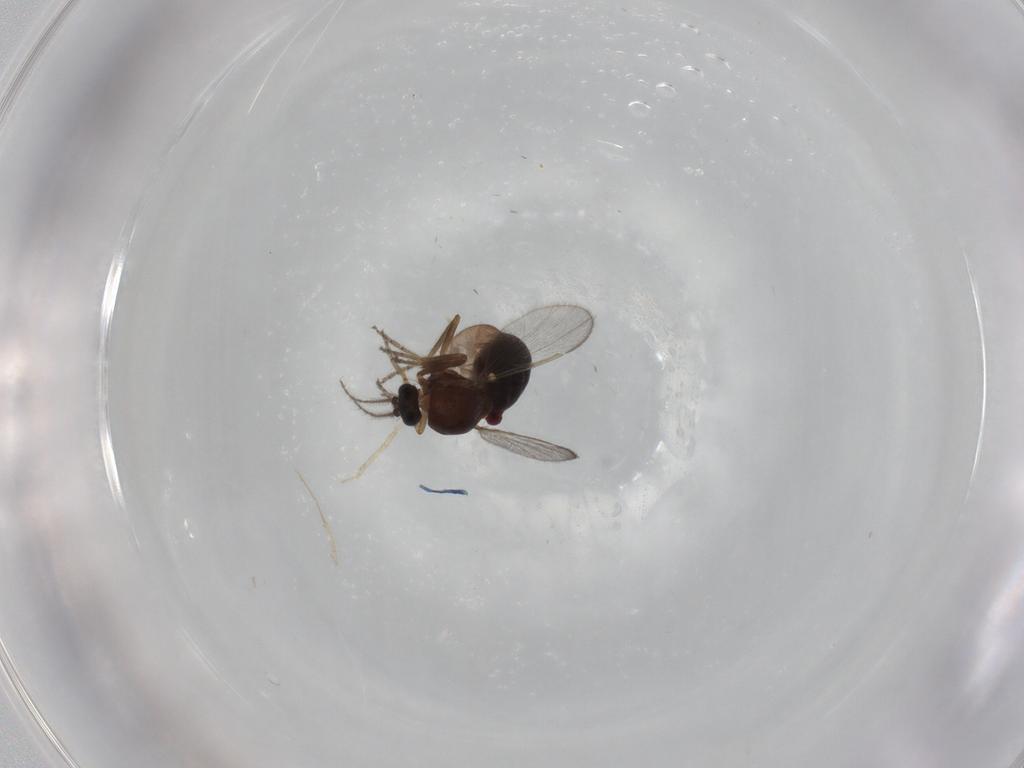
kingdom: Animalia
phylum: Arthropoda
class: Insecta
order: Diptera
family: Ceratopogonidae
